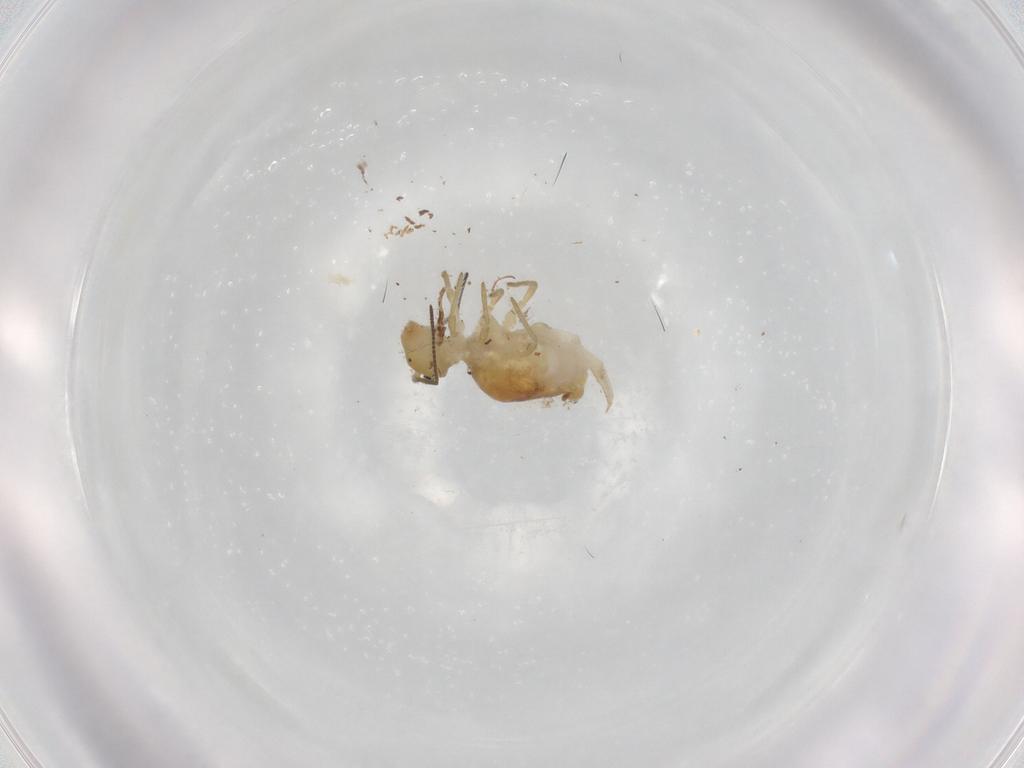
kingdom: Animalia
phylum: Arthropoda
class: Collembola
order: Symphypleona
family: Sminthuridae
